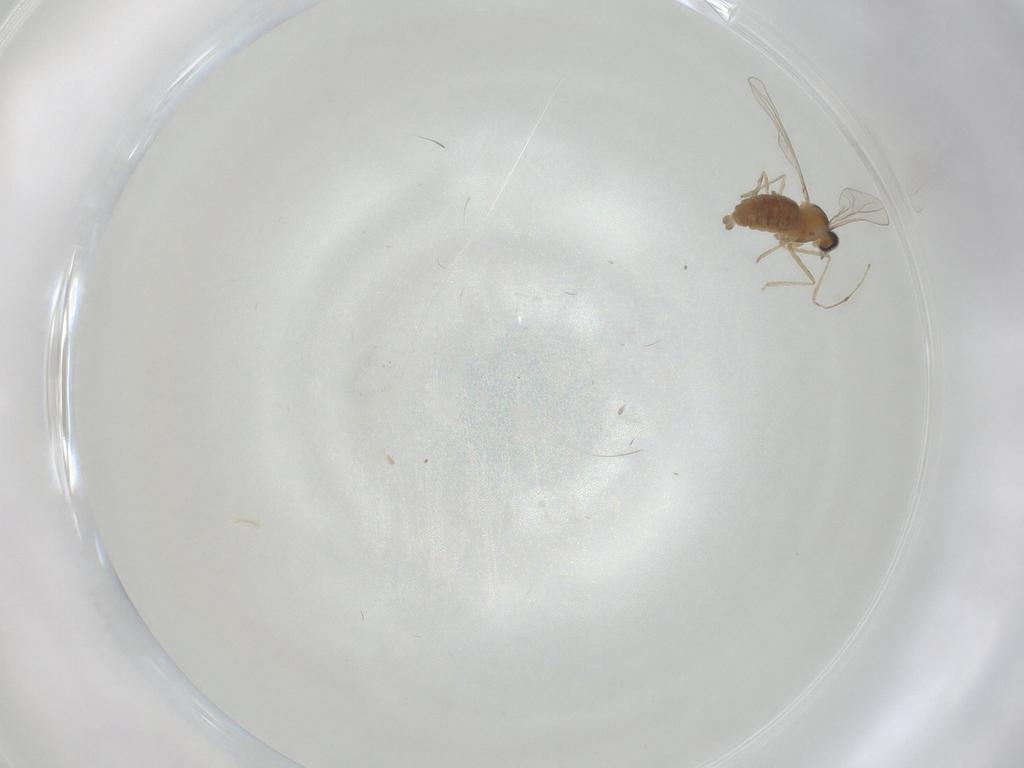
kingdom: Animalia
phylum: Arthropoda
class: Insecta
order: Diptera
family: Cecidomyiidae
